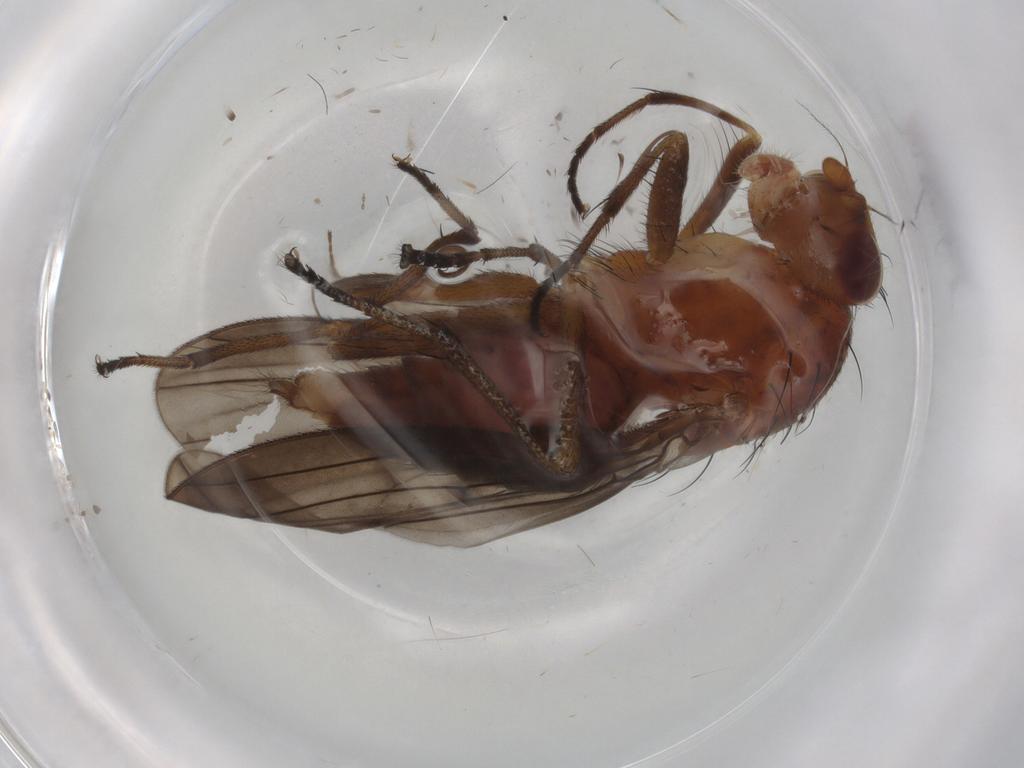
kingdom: Animalia
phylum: Arthropoda
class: Insecta
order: Diptera
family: Heleomyzidae
